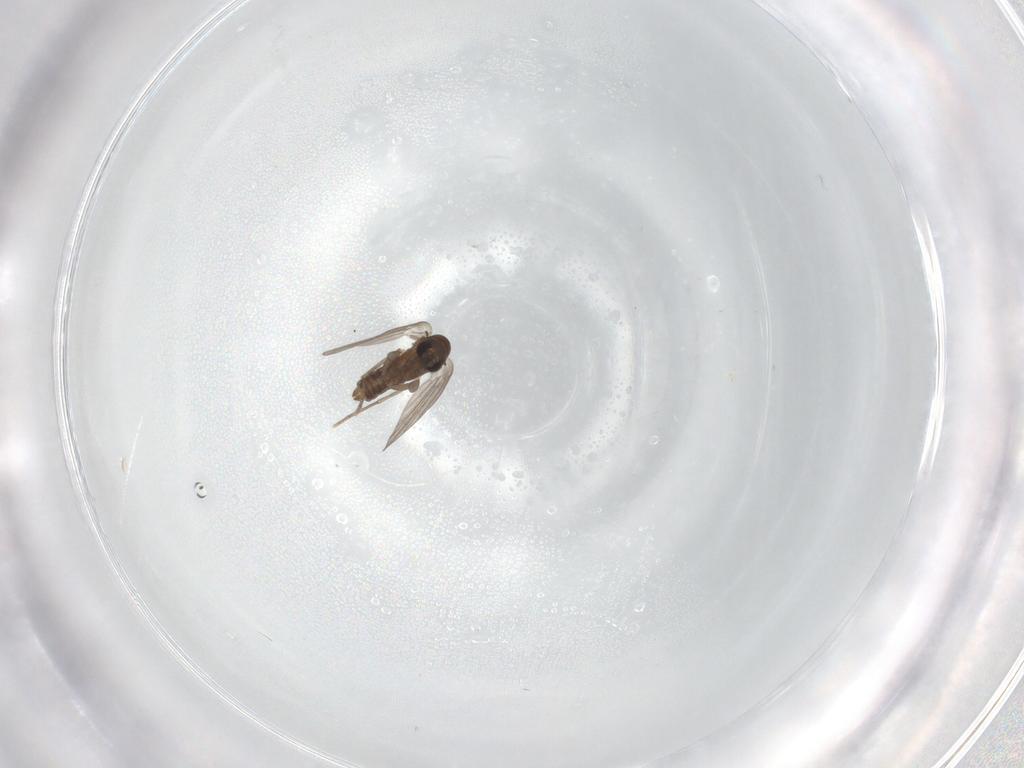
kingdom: Animalia
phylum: Arthropoda
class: Insecta
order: Diptera
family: Psychodidae
